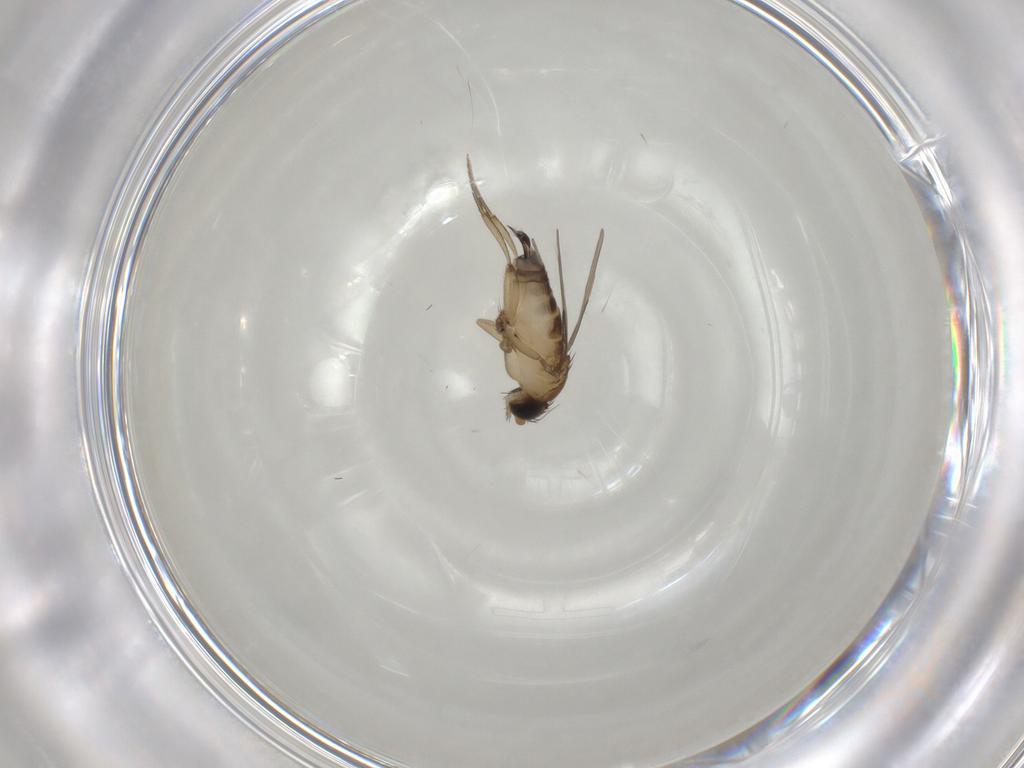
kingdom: Animalia
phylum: Arthropoda
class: Insecta
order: Diptera
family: Phoridae
